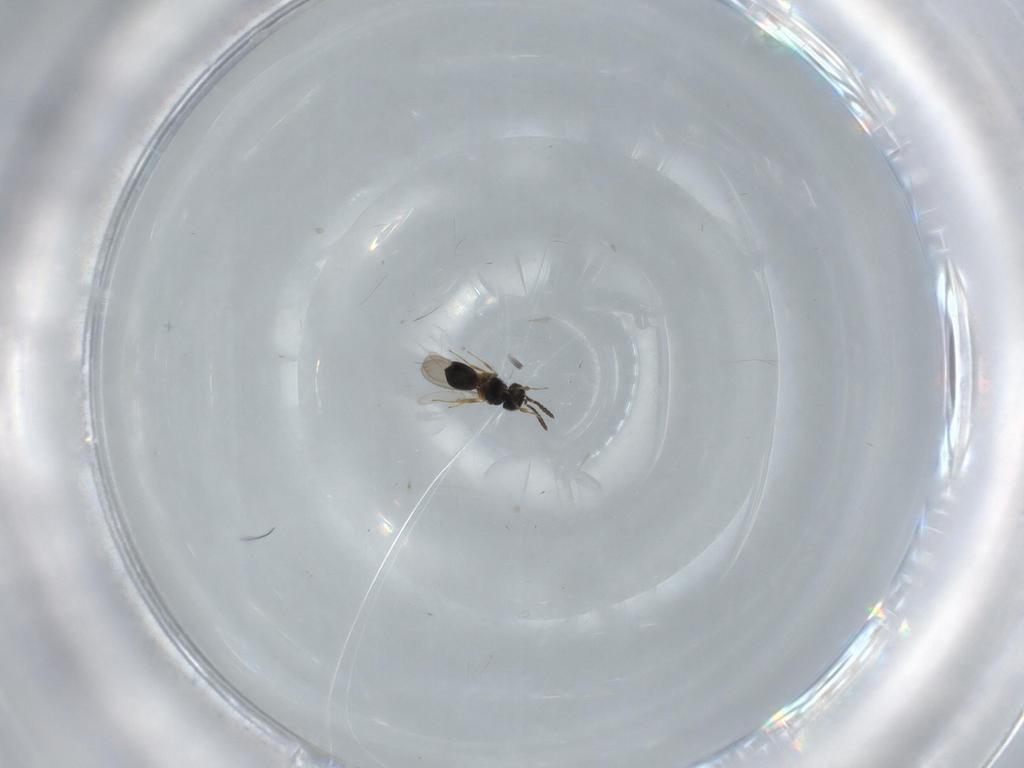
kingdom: Animalia
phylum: Arthropoda
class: Insecta
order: Hymenoptera
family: Scelionidae
